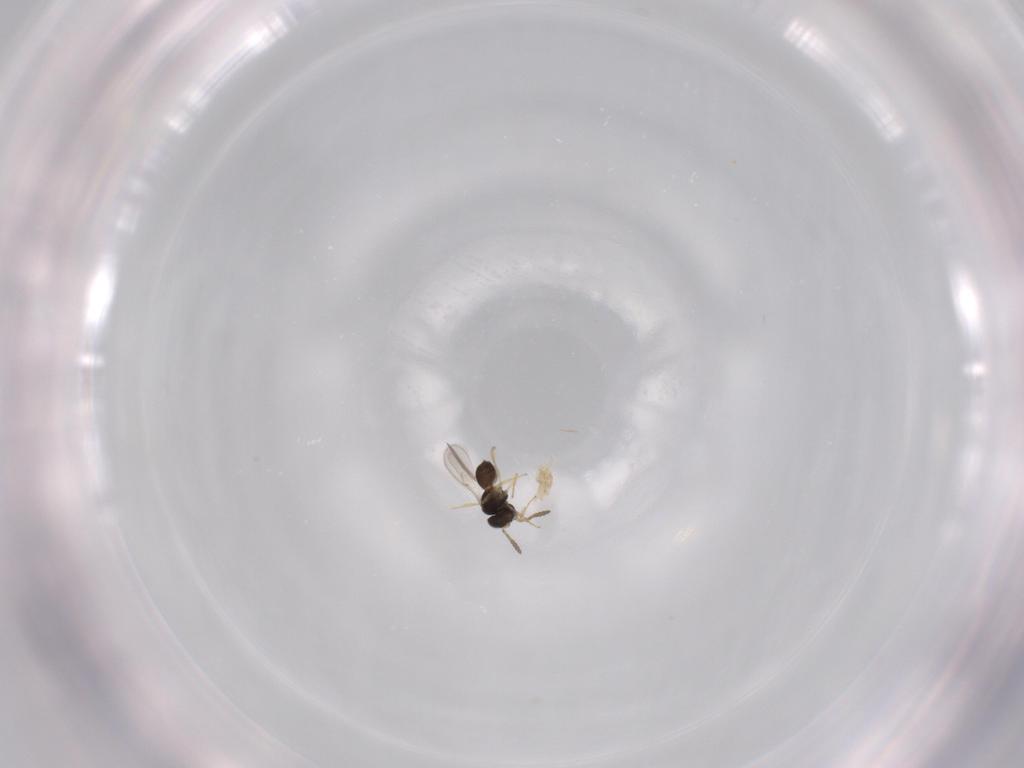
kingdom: Animalia
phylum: Arthropoda
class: Insecta
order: Hymenoptera
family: Scelionidae
